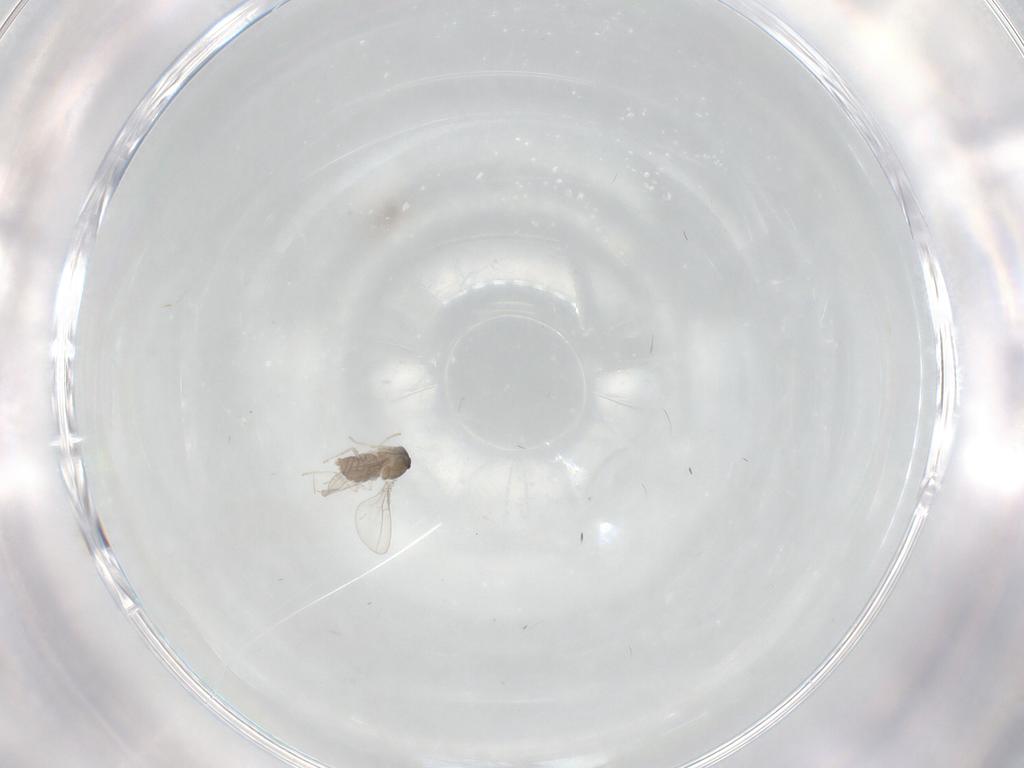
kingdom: Animalia
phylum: Arthropoda
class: Insecta
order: Diptera
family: Cecidomyiidae
